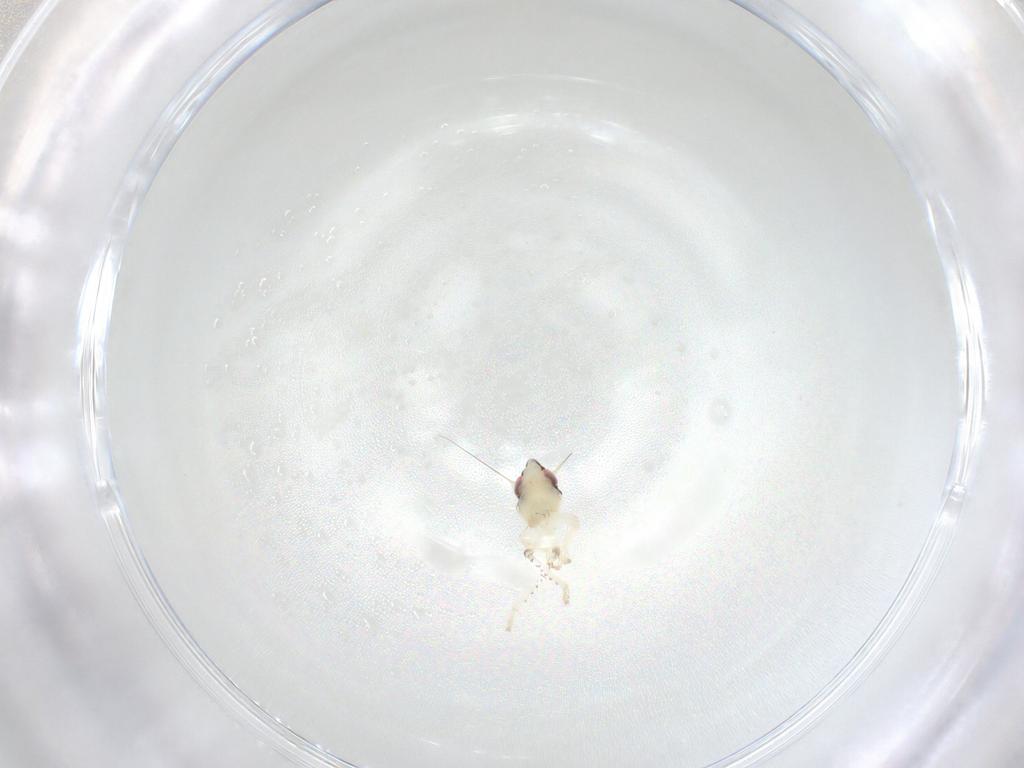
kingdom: Animalia
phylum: Arthropoda
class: Insecta
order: Hemiptera
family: Cicadellidae
